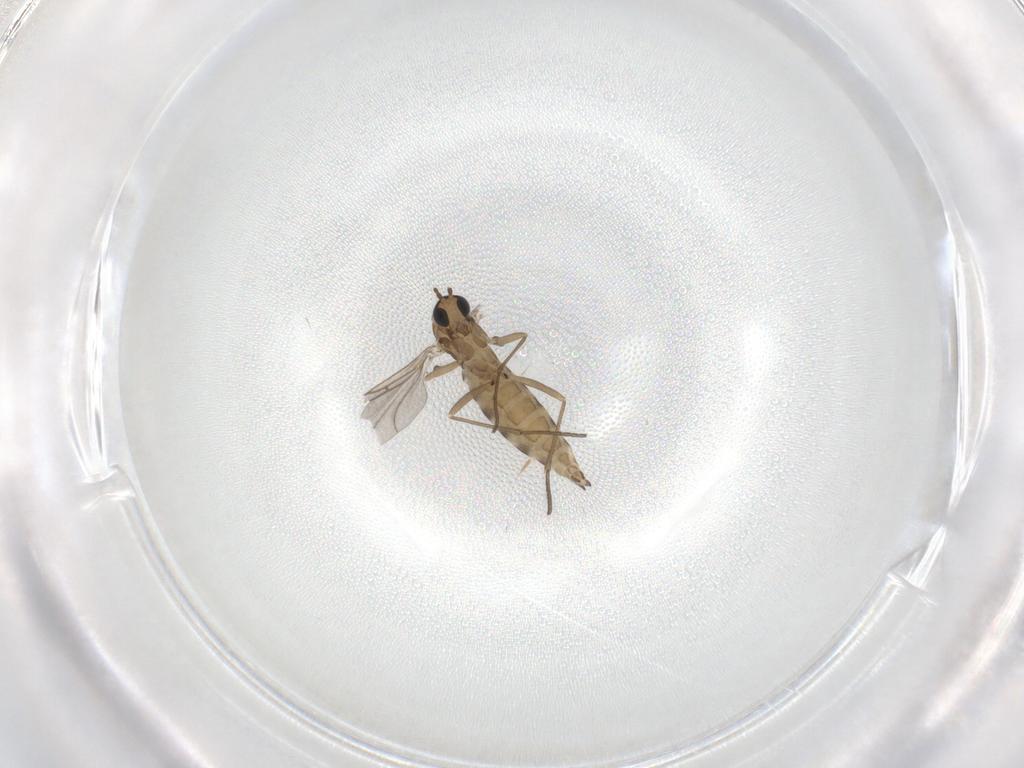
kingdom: Animalia
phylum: Arthropoda
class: Insecta
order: Diptera
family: Sciaridae
